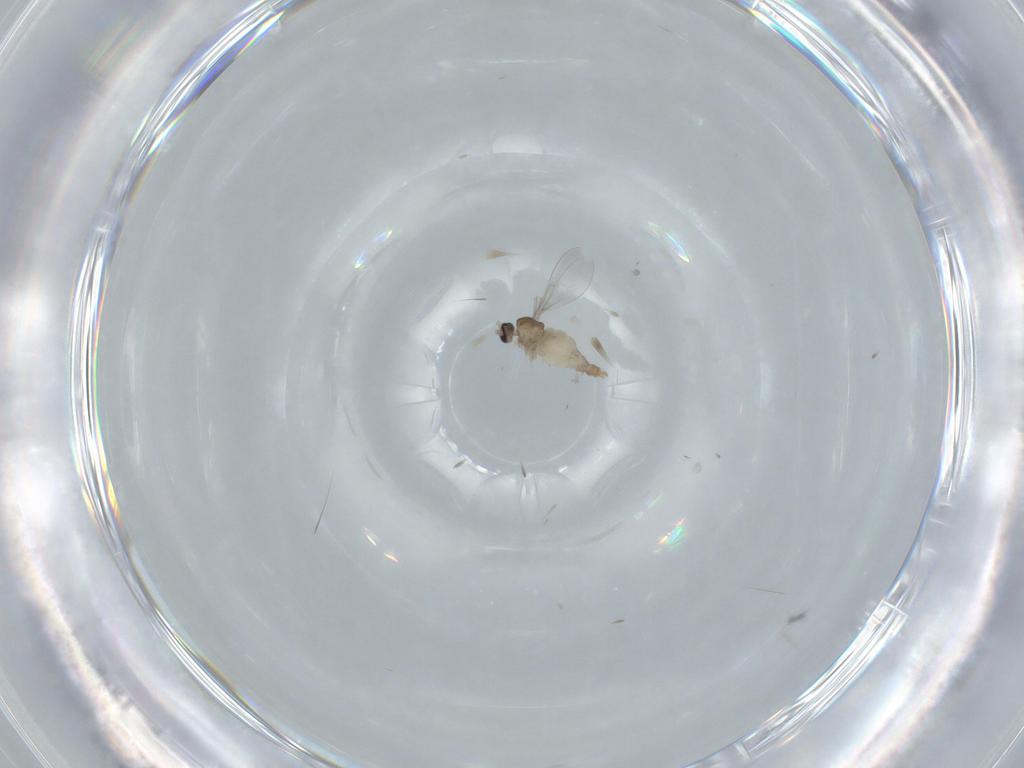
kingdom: Animalia
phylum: Arthropoda
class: Insecta
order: Diptera
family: Cecidomyiidae
